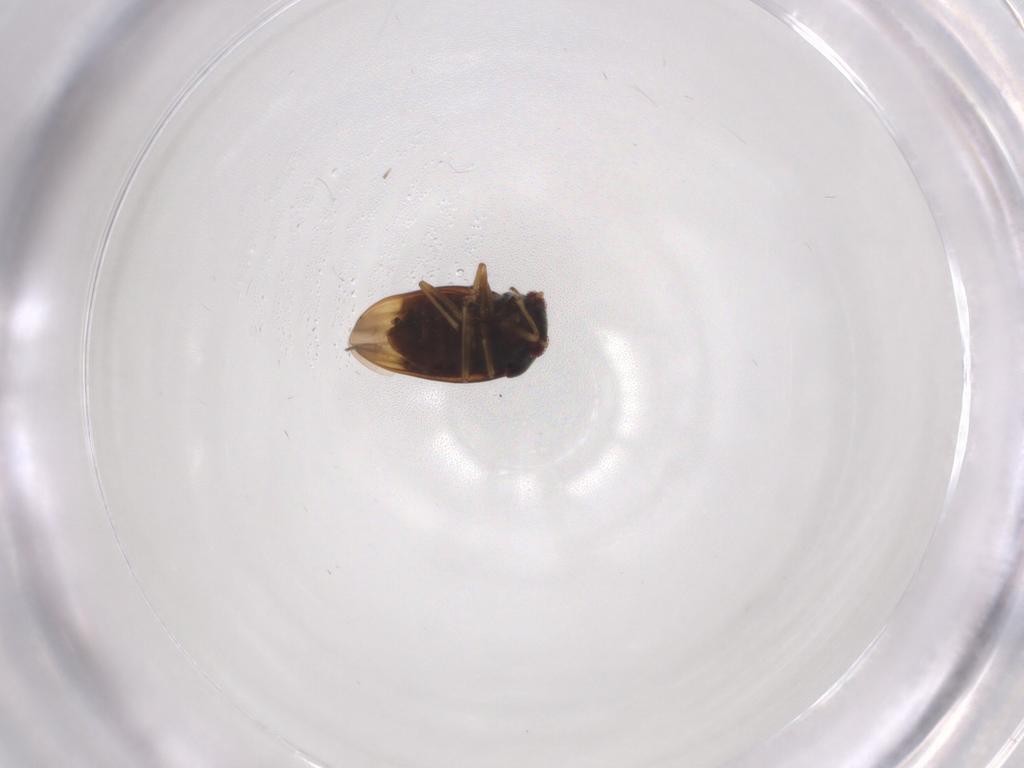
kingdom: Animalia
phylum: Arthropoda
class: Insecta
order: Hemiptera
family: Schizopteridae
